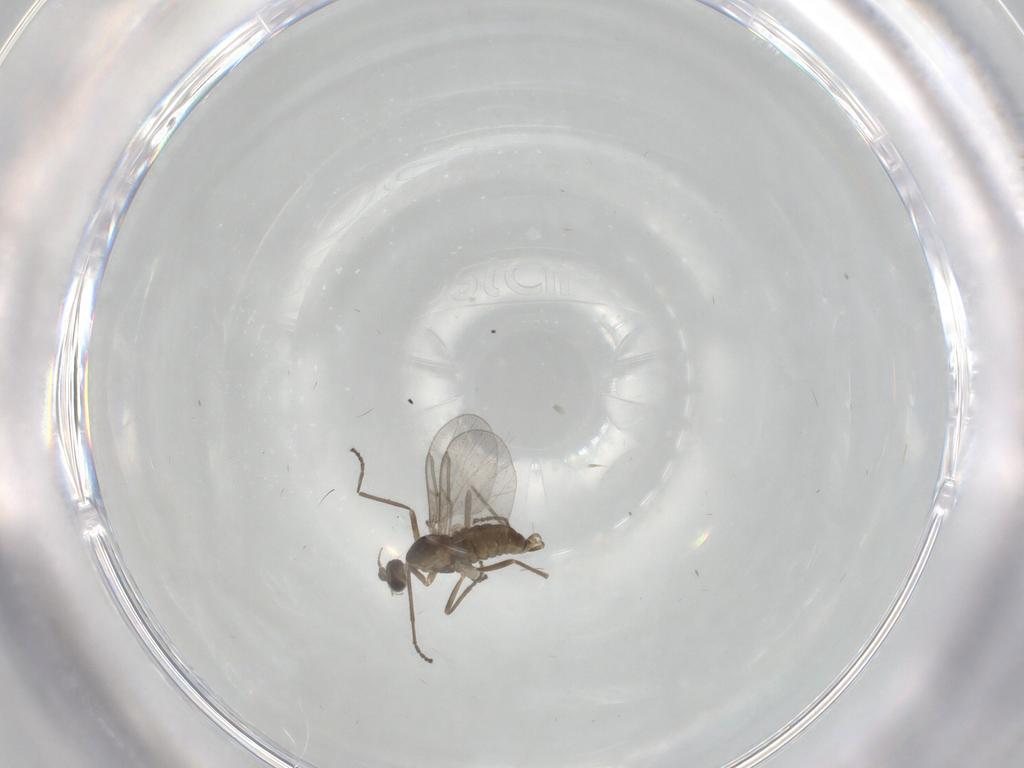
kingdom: Animalia
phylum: Arthropoda
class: Insecta
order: Diptera
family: Cecidomyiidae
